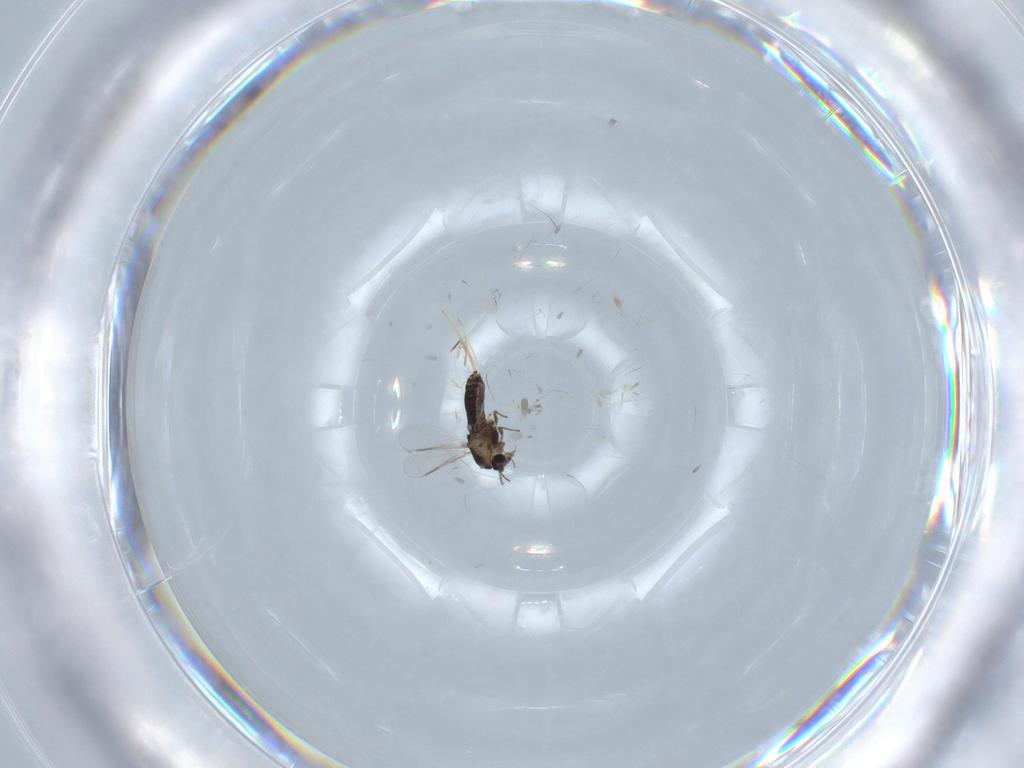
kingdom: Animalia
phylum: Arthropoda
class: Insecta
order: Diptera
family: Chironomidae
